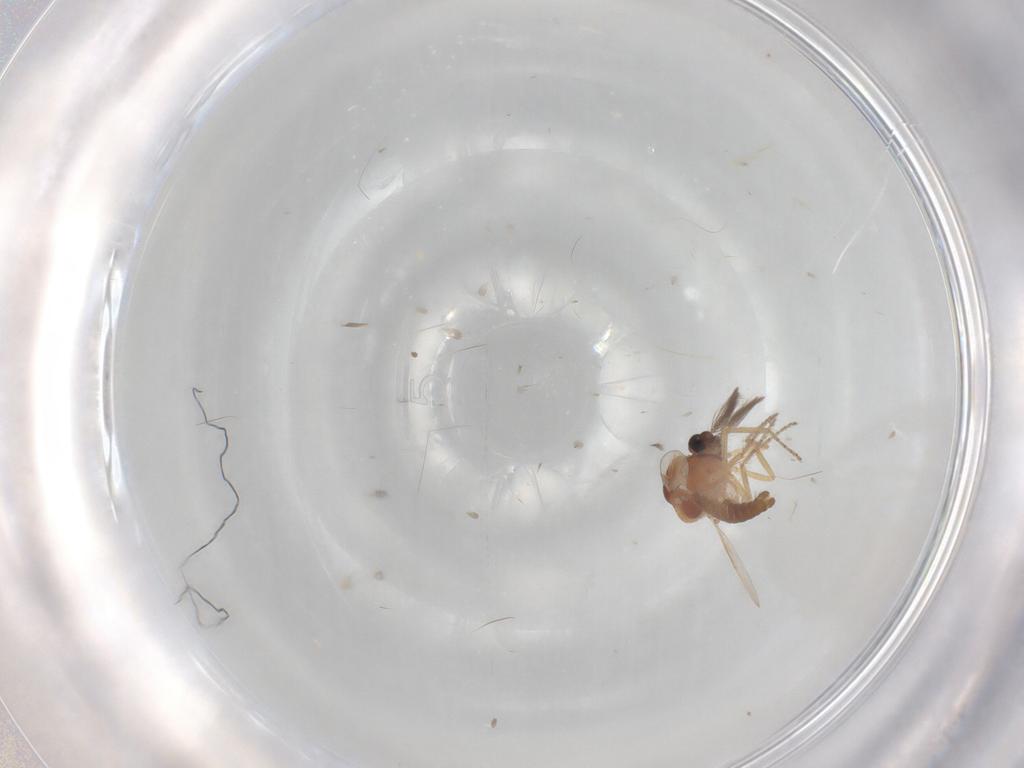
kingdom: Animalia
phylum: Arthropoda
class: Insecta
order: Diptera
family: Ceratopogonidae
